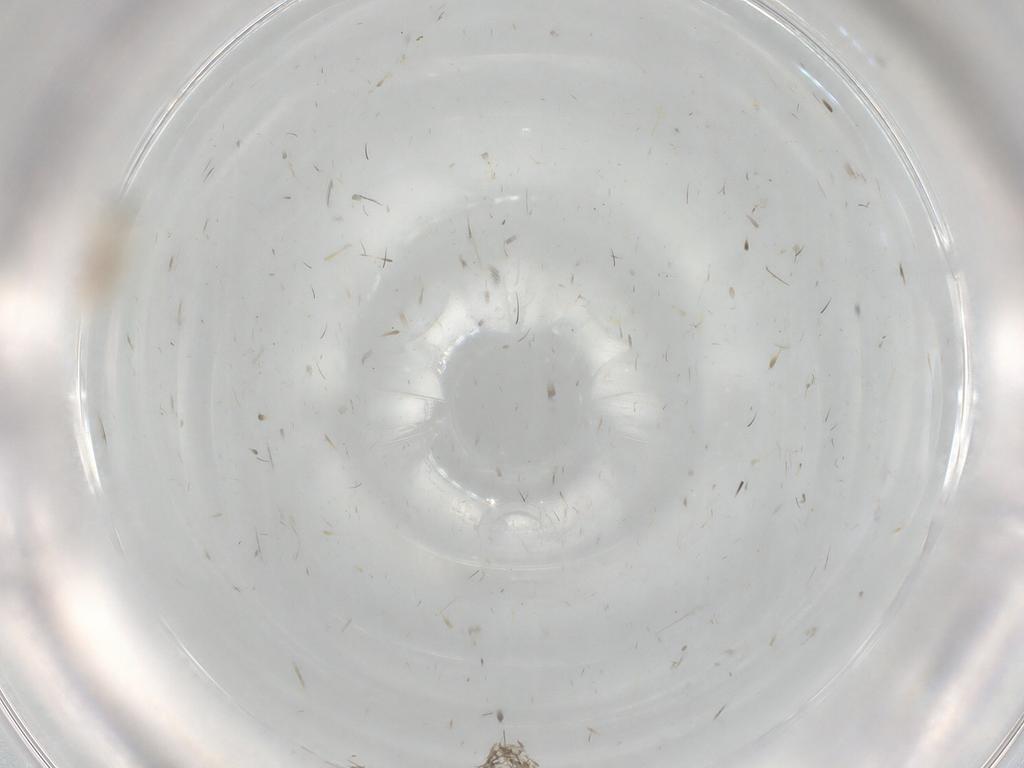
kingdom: Animalia
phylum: Arthropoda
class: Insecta
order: Diptera
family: Cecidomyiidae
